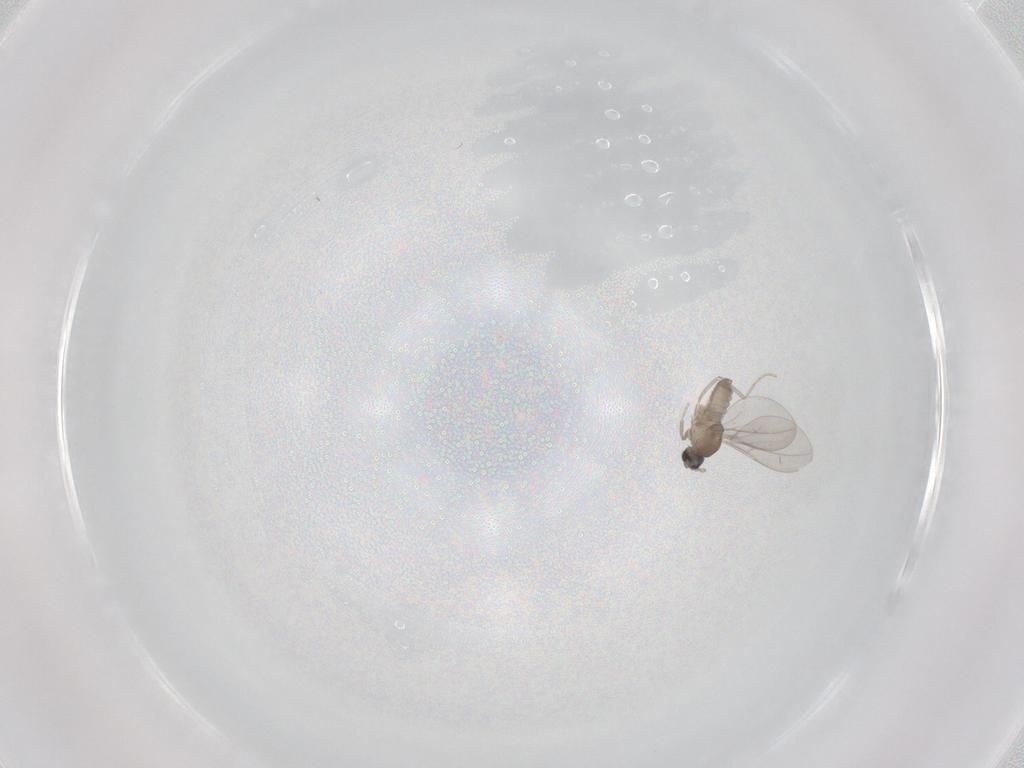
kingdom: Animalia
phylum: Arthropoda
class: Insecta
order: Diptera
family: Cecidomyiidae
